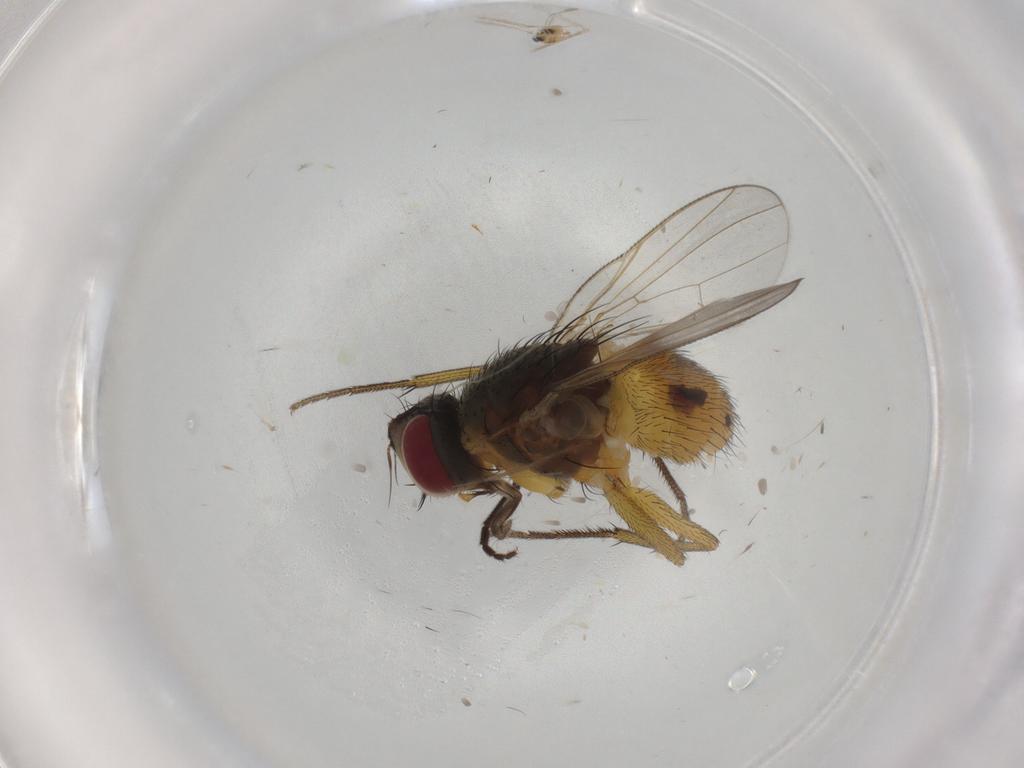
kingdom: Animalia
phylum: Arthropoda
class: Insecta
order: Diptera
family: Muscidae
